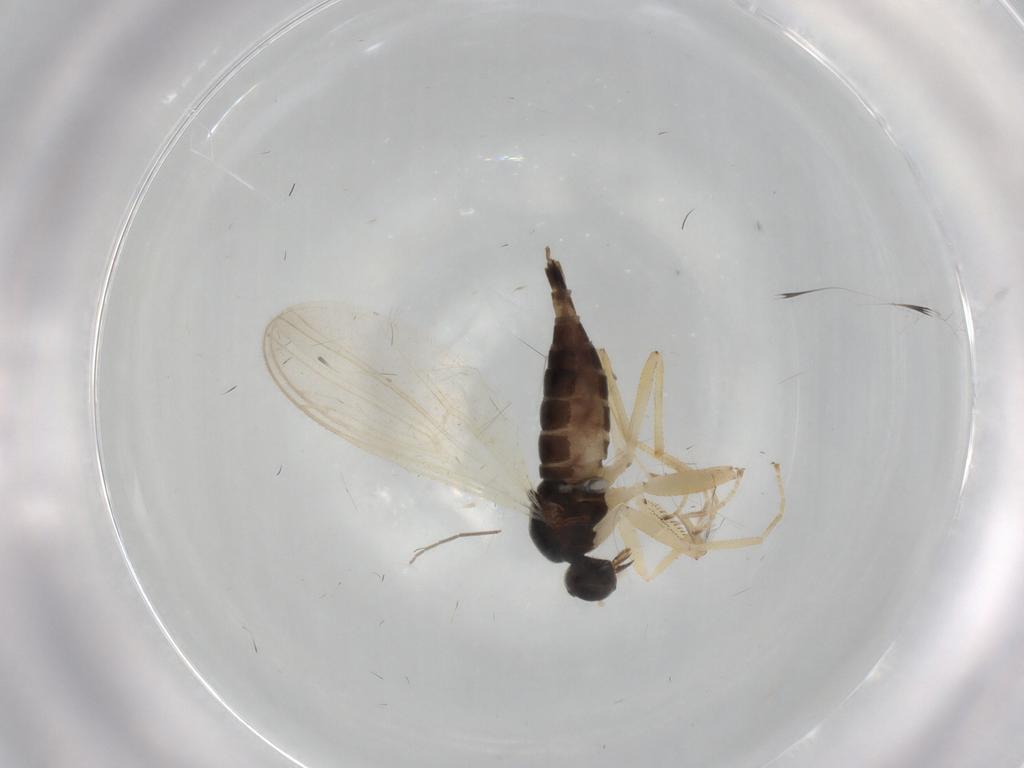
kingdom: Animalia
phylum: Arthropoda
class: Insecta
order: Diptera
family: Hybotidae
